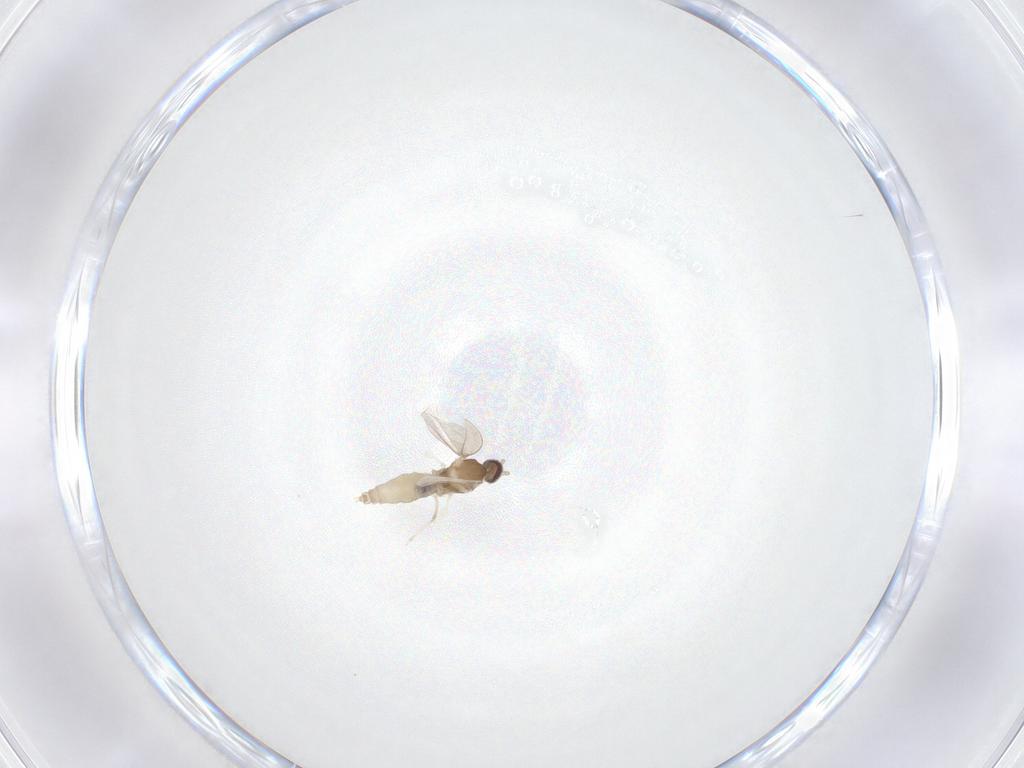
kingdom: Animalia
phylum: Arthropoda
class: Insecta
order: Diptera
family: Cecidomyiidae
